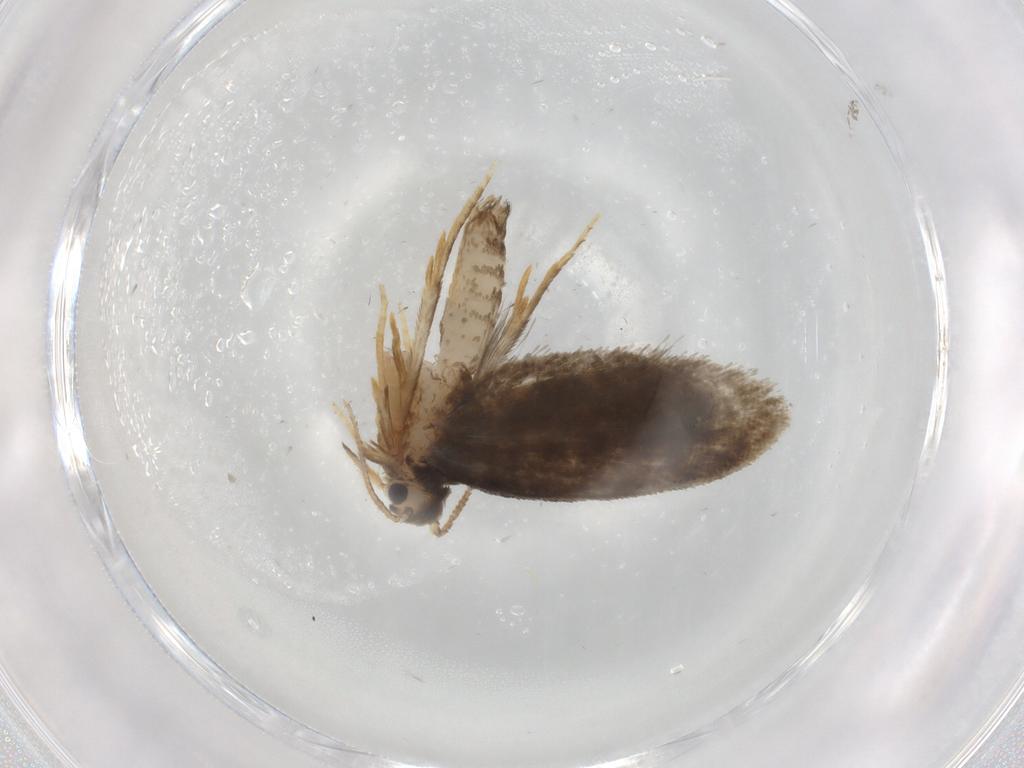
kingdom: Animalia
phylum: Arthropoda
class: Insecta
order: Lepidoptera
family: Psychidae
